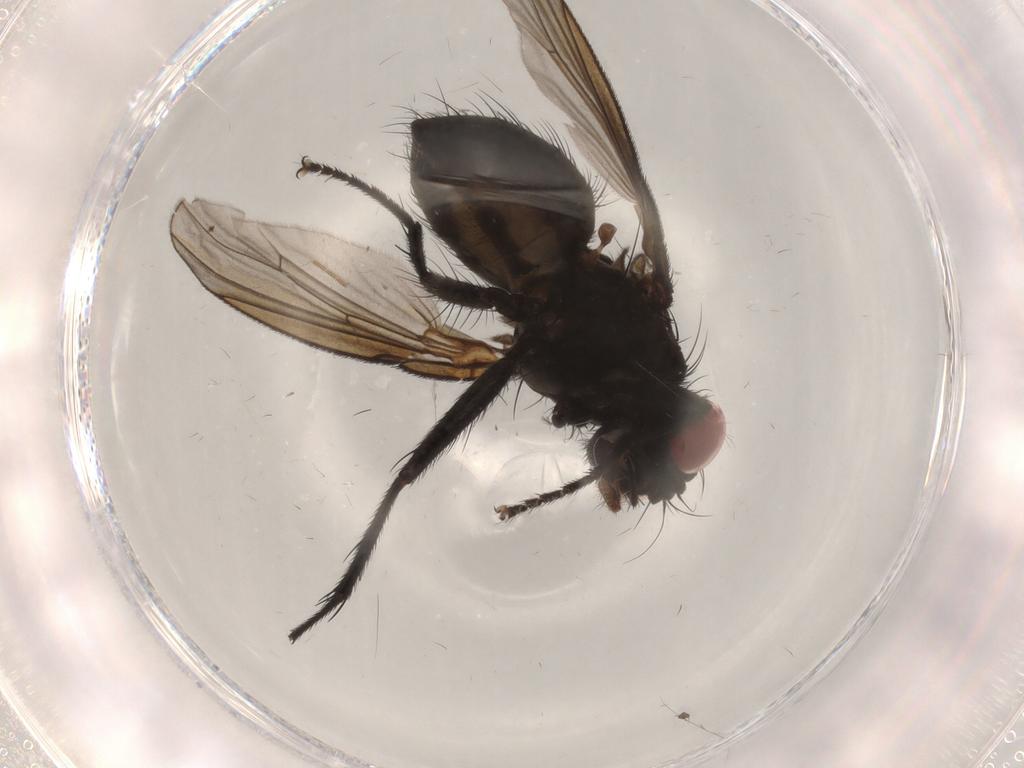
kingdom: Animalia
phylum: Arthropoda
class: Insecta
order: Diptera
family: Muscidae
